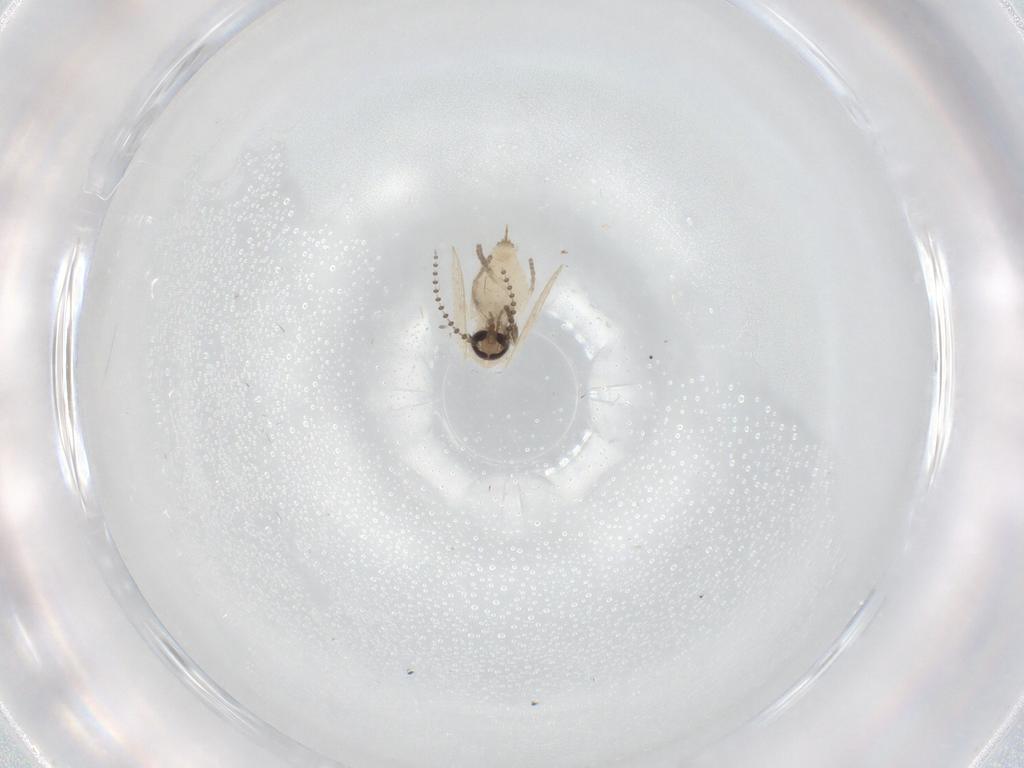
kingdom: Animalia
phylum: Arthropoda
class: Insecta
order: Diptera
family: Psychodidae
